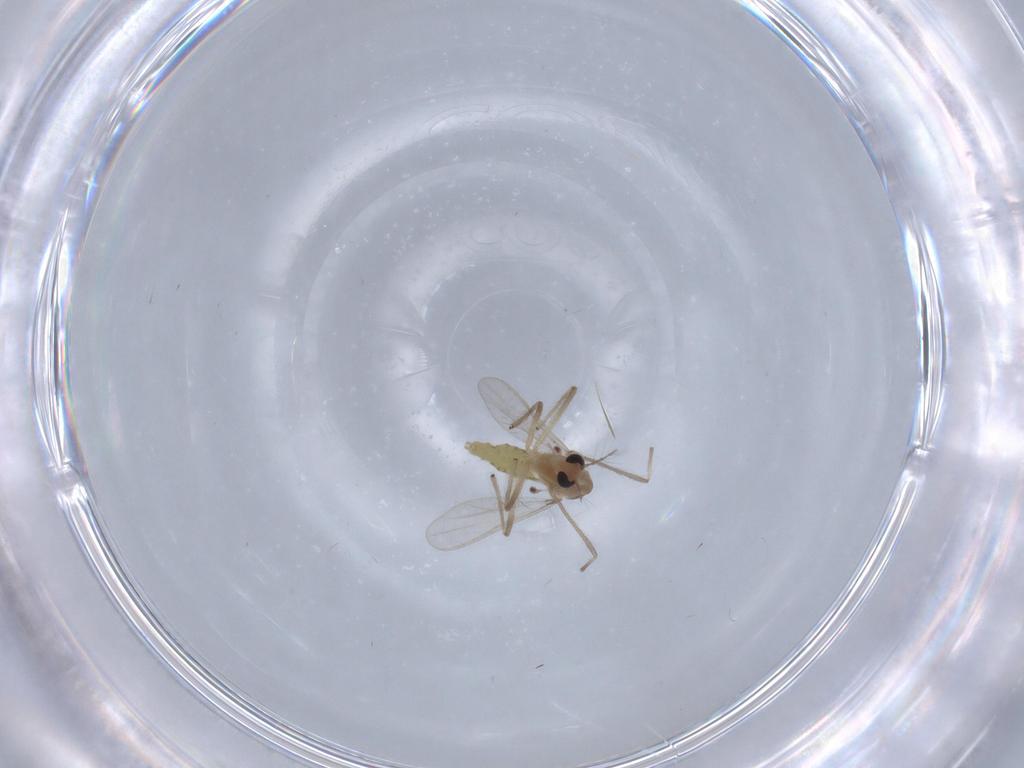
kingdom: Animalia
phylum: Arthropoda
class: Insecta
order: Diptera
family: Chironomidae
